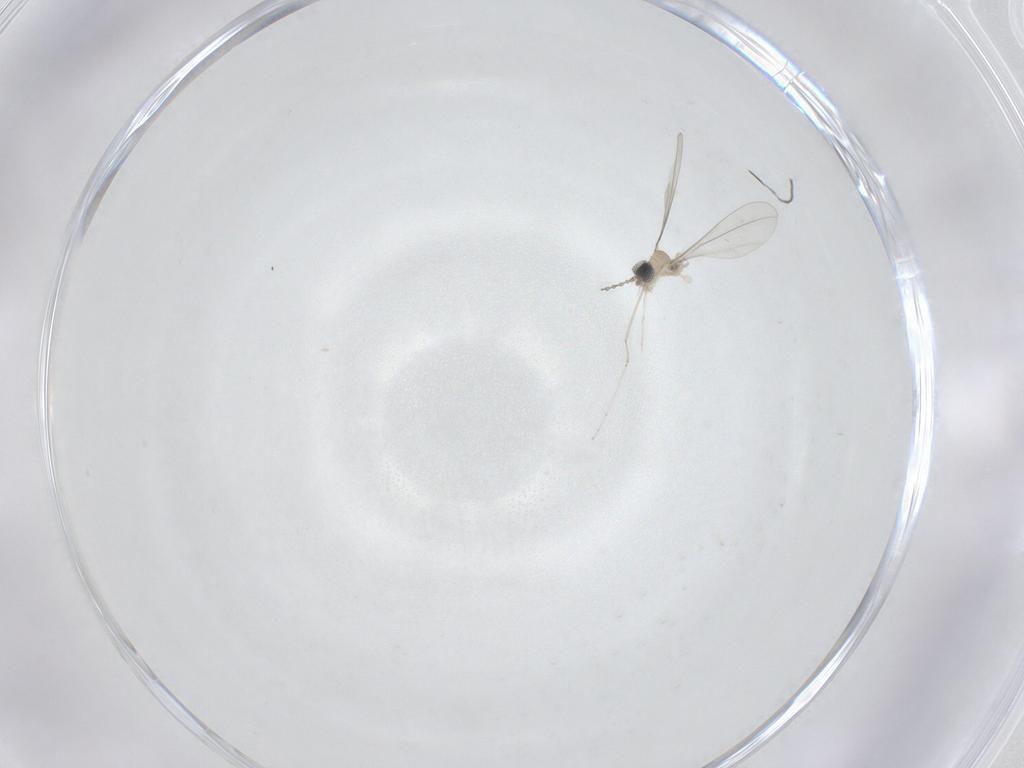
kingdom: Animalia
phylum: Arthropoda
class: Insecta
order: Diptera
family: Cecidomyiidae
